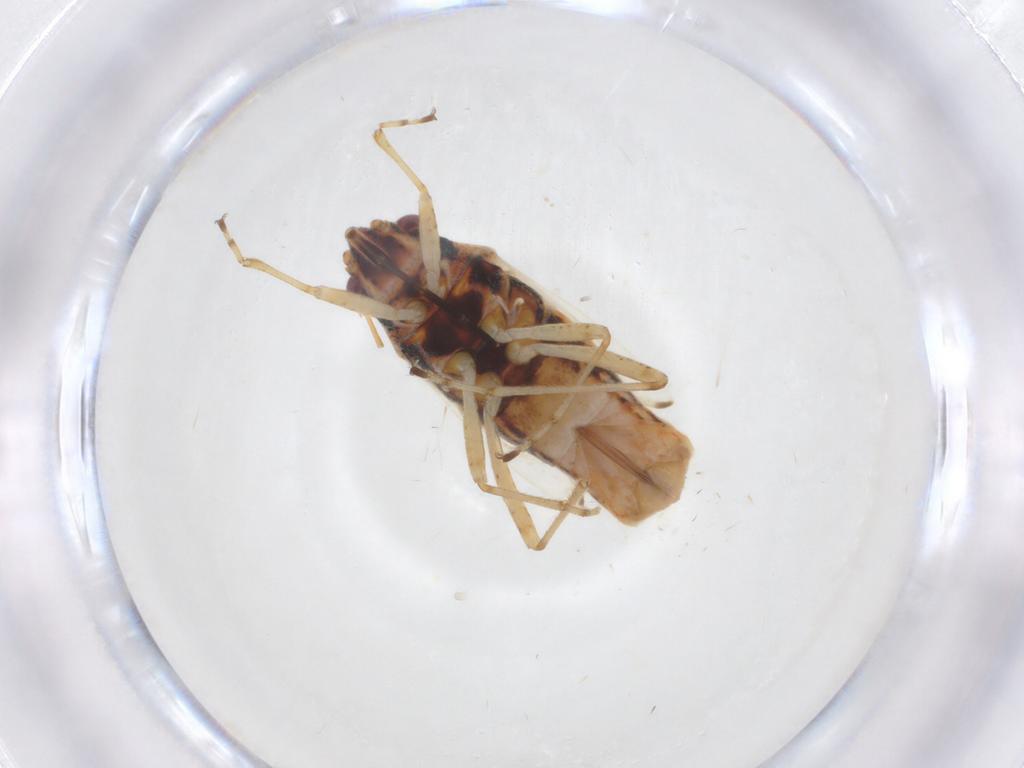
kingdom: Animalia
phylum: Arthropoda
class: Insecta
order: Hemiptera
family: Lygaeidae
